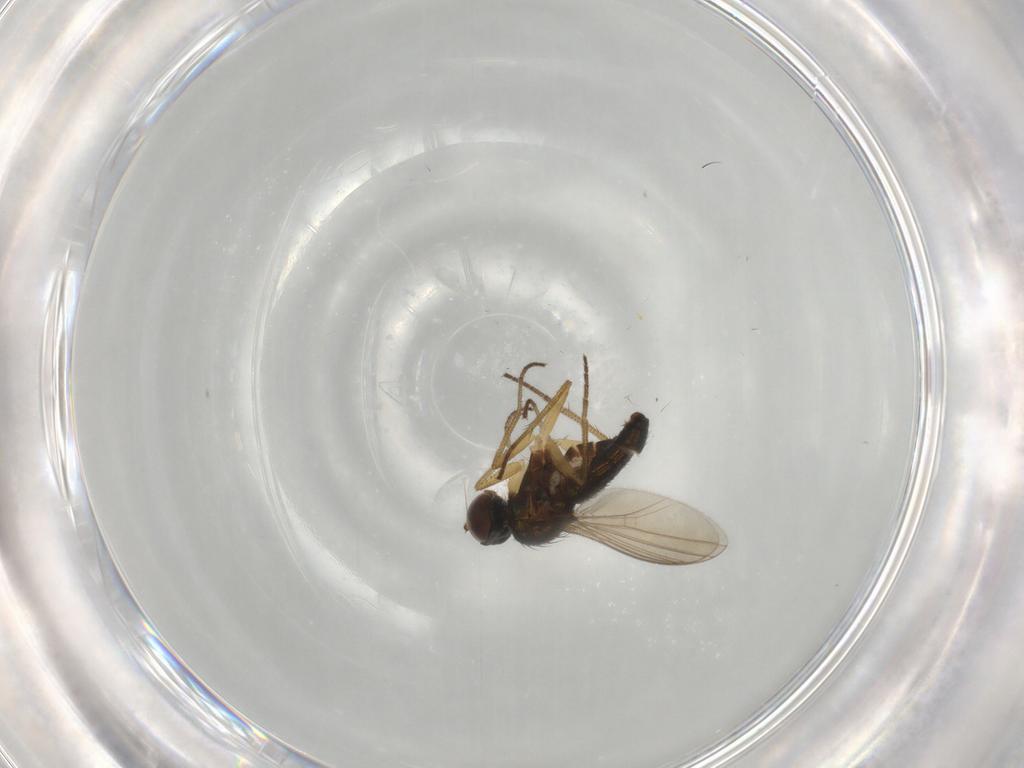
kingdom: Animalia
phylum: Arthropoda
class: Insecta
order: Diptera
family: Dolichopodidae
